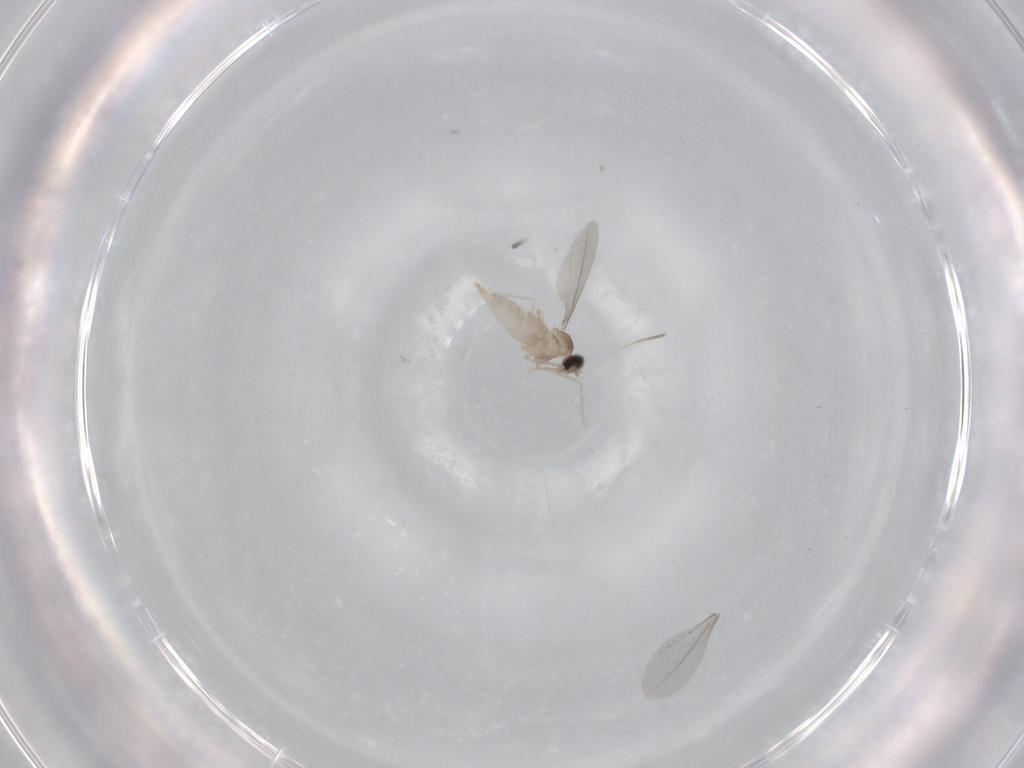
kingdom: Animalia
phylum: Arthropoda
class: Insecta
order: Diptera
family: Cecidomyiidae
